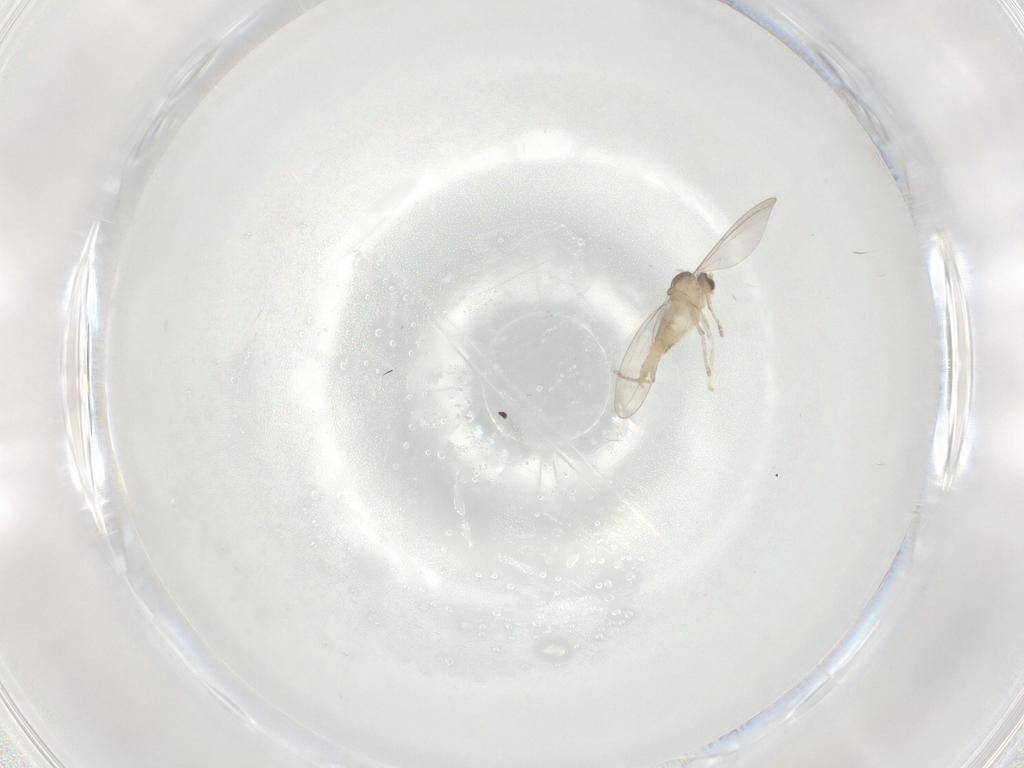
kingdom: Animalia
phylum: Arthropoda
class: Insecta
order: Diptera
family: Cecidomyiidae
